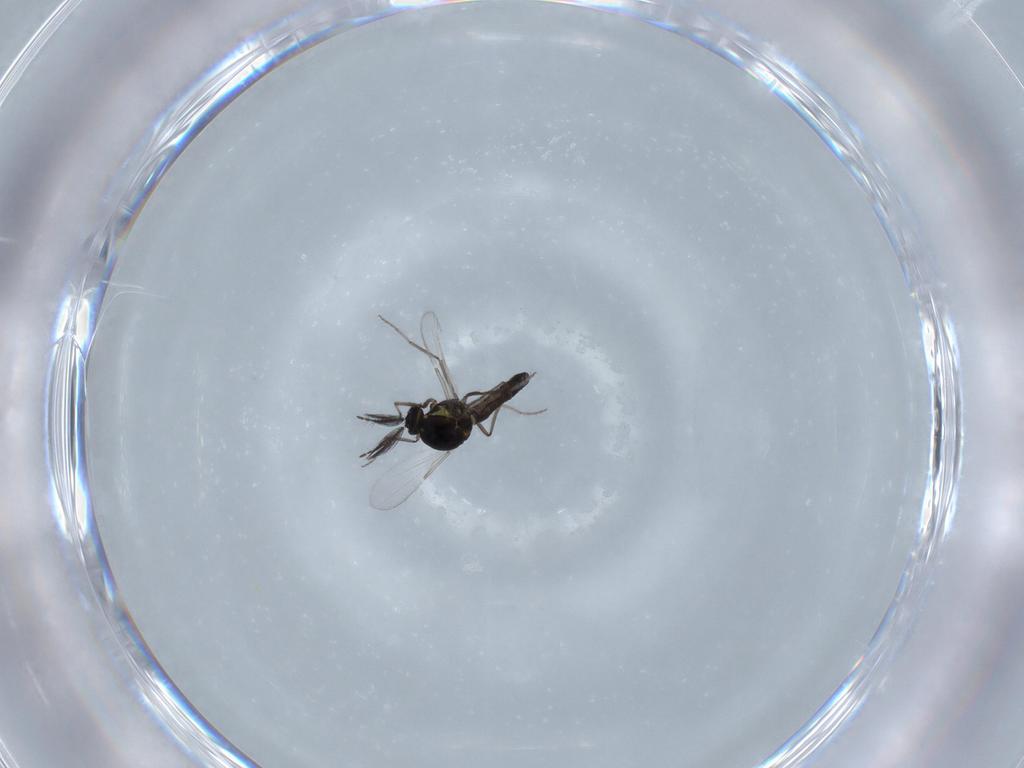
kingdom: Animalia
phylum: Arthropoda
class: Insecta
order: Diptera
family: Ceratopogonidae
